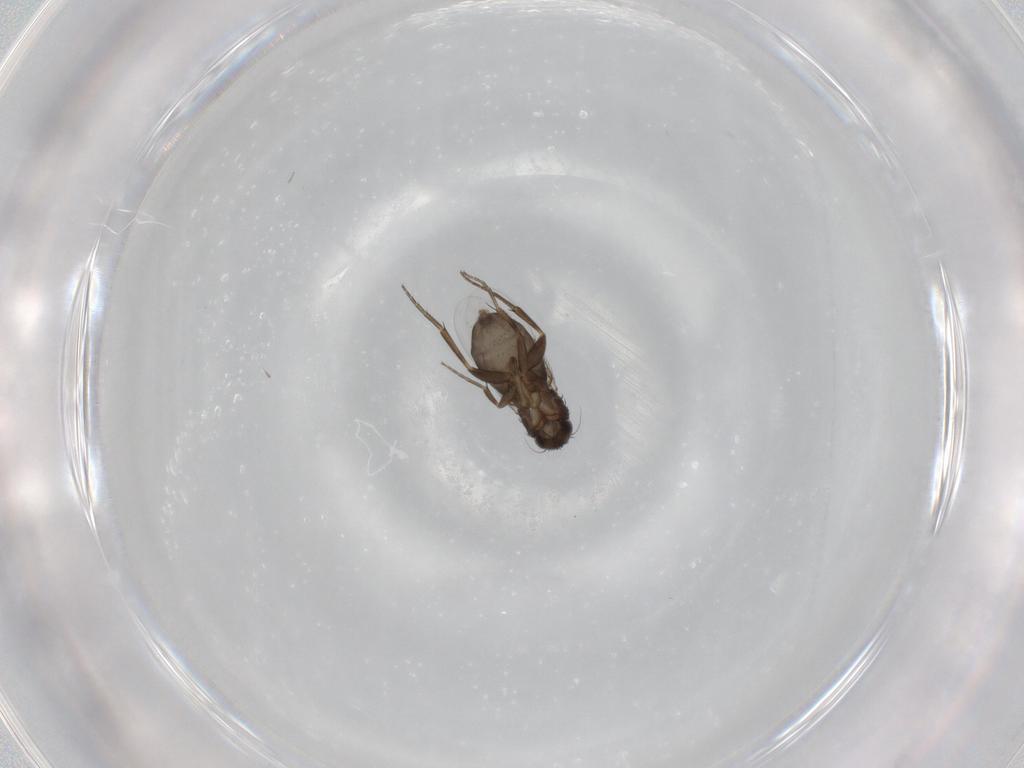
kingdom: Animalia
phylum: Arthropoda
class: Insecta
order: Diptera
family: Phoridae
